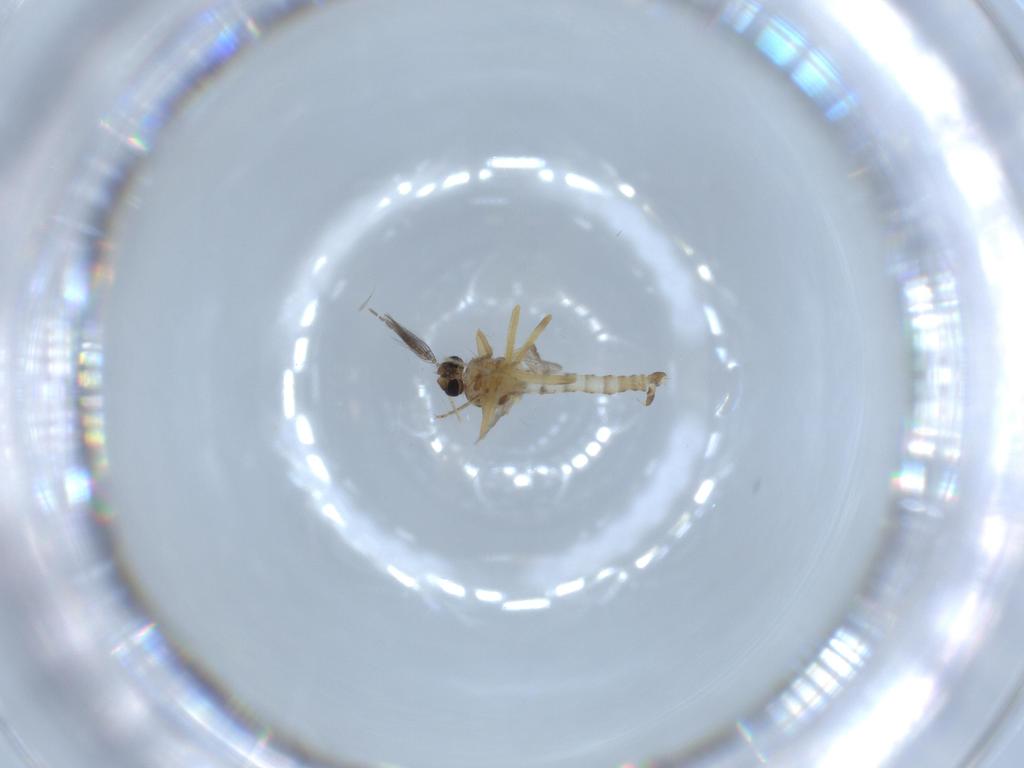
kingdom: Animalia
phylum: Arthropoda
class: Insecta
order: Diptera
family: Ceratopogonidae
